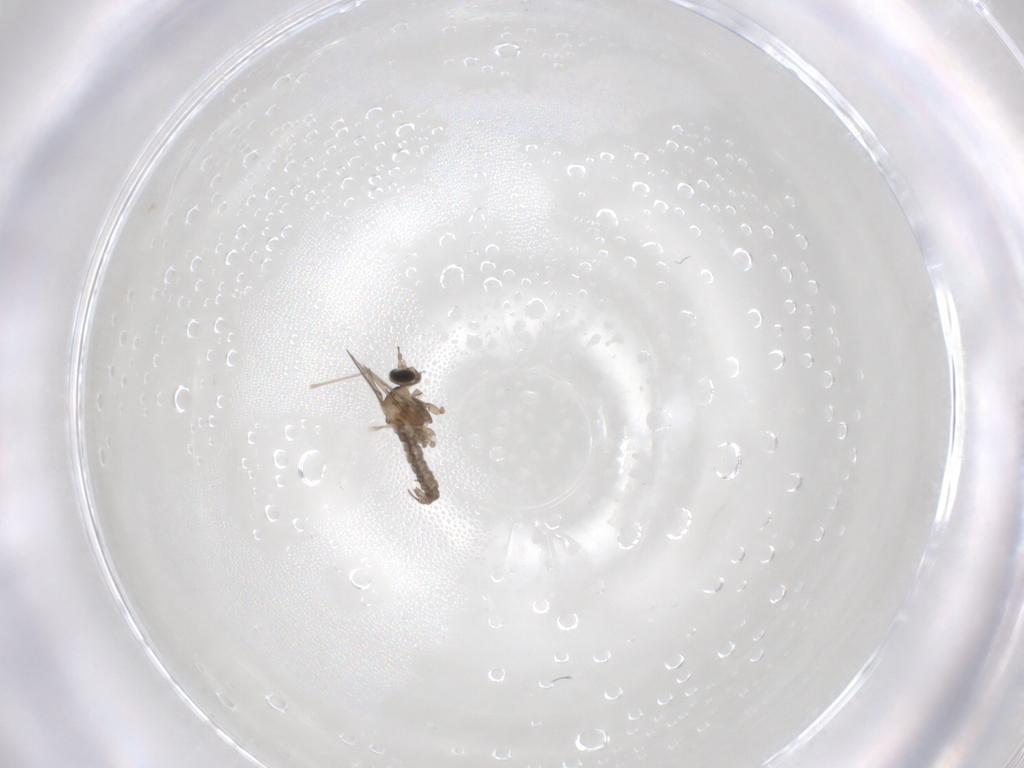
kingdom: Animalia
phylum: Arthropoda
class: Insecta
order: Diptera
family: Cecidomyiidae
